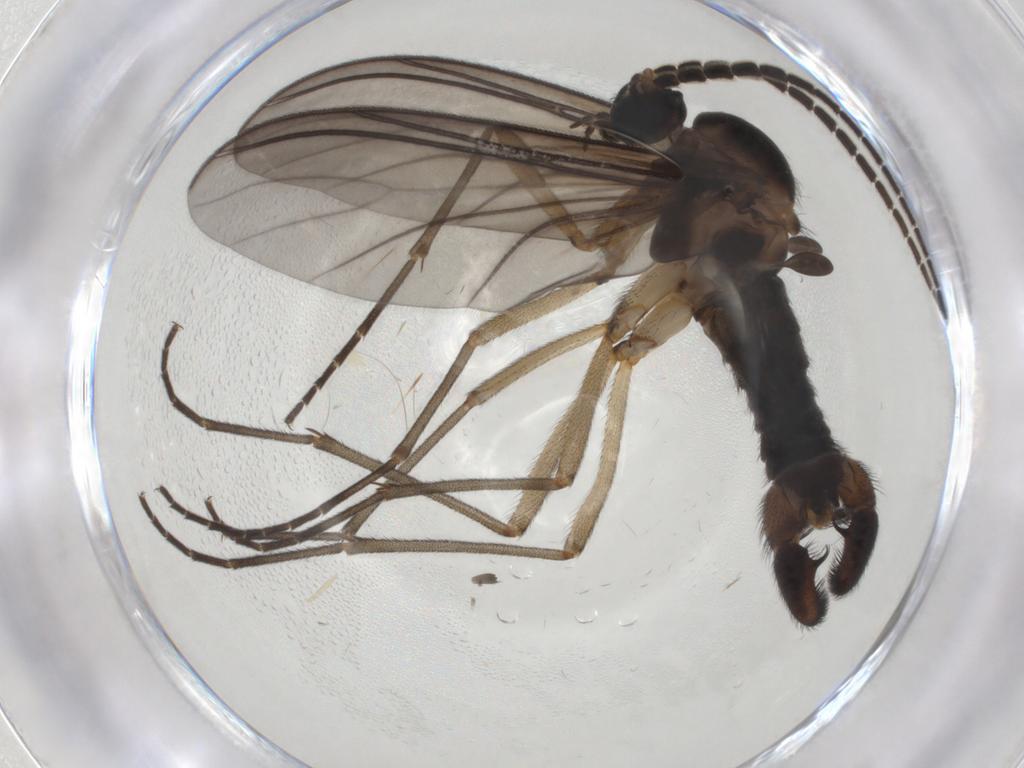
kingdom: Animalia
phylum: Arthropoda
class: Insecta
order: Diptera
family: Sciaridae
